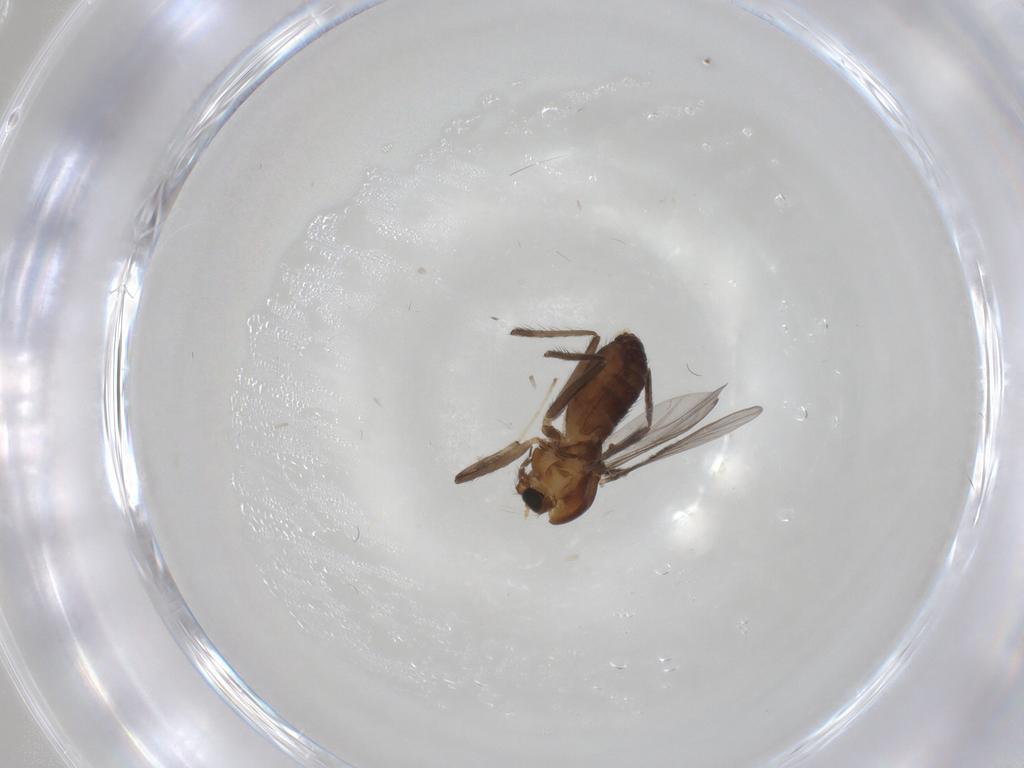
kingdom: Animalia
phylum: Arthropoda
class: Insecta
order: Diptera
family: Chironomidae
